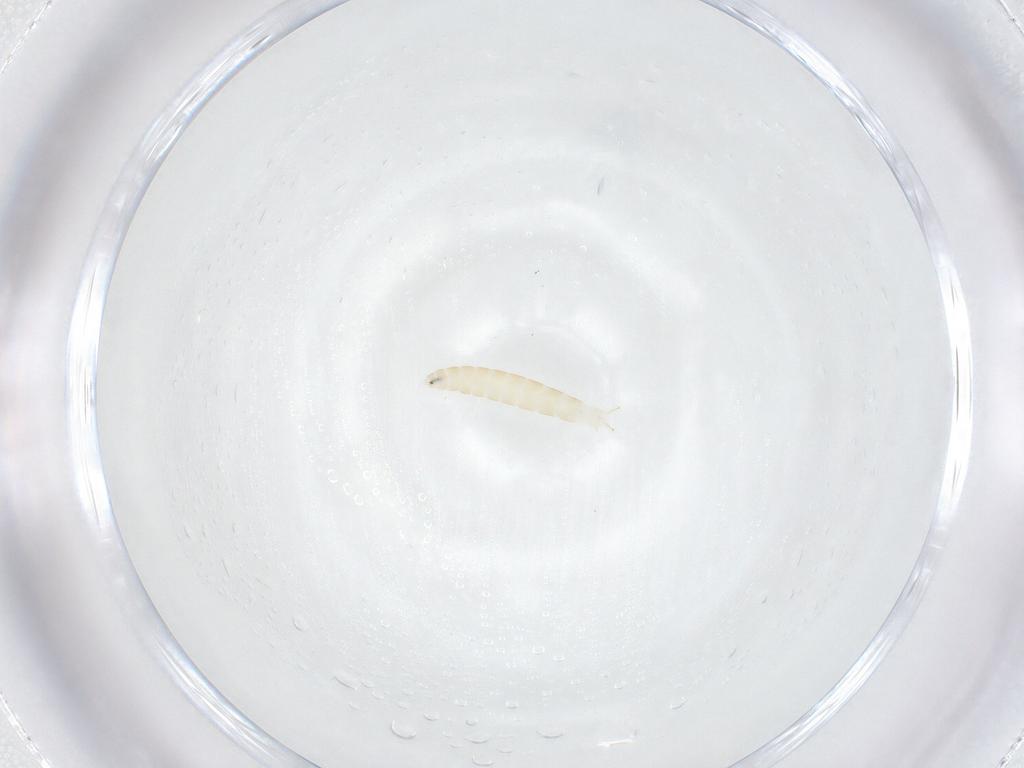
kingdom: Animalia
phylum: Arthropoda
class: Insecta
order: Diptera
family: Tachinidae
